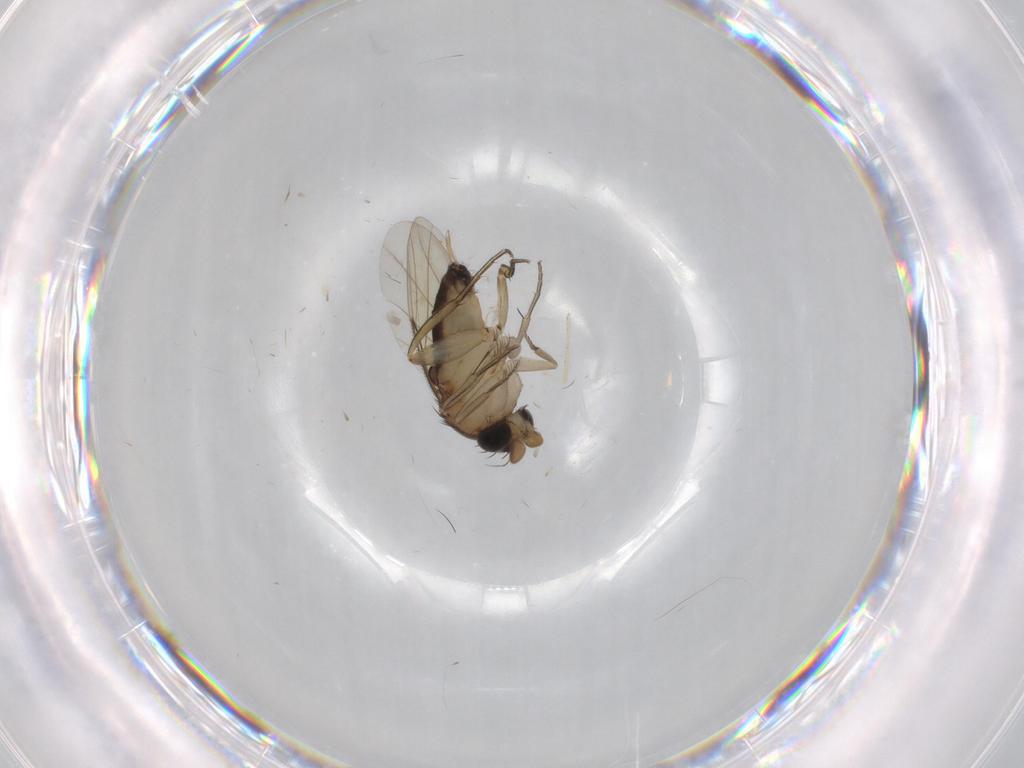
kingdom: Animalia
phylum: Arthropoda
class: Insecta
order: Diptera
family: Phoridae
